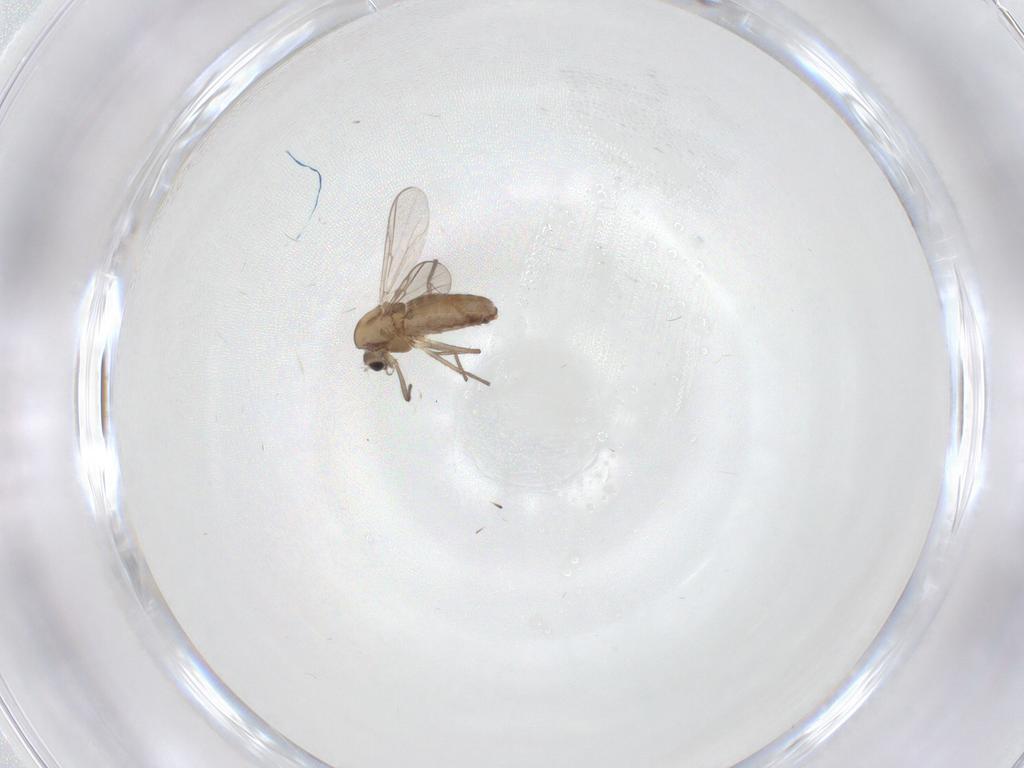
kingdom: Animalia
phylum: Arthropoda
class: Insecta
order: Diptera
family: Chironomidae
